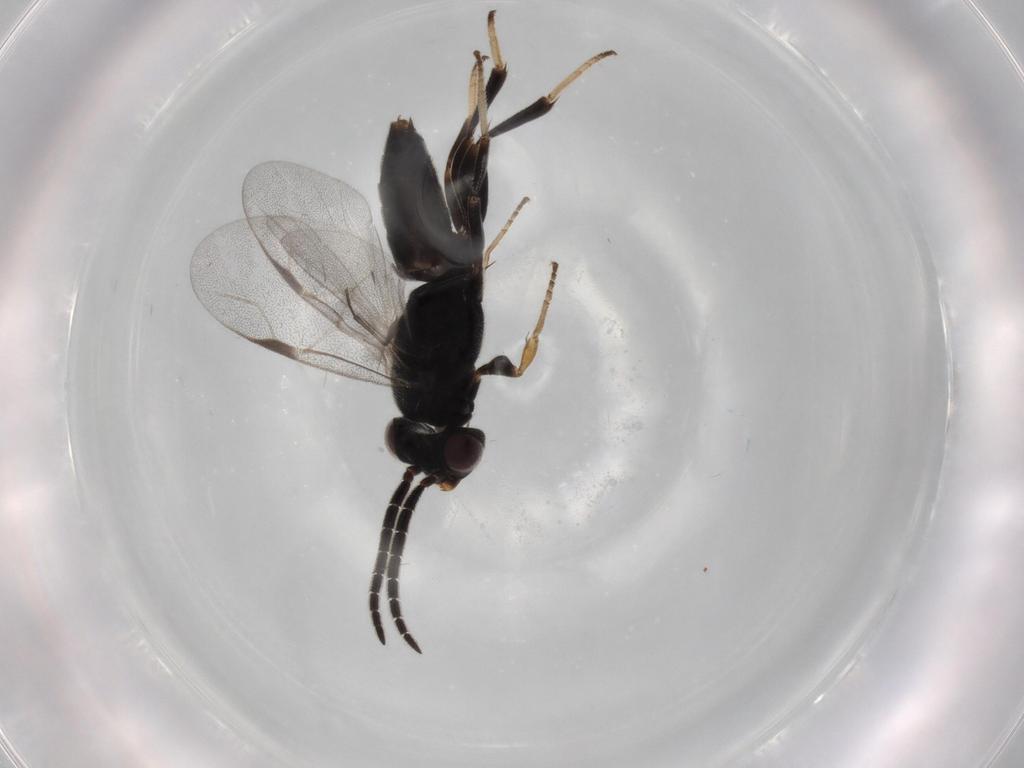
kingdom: Animalia
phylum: Arthropoda
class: Insecta
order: Hymenoptera
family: Dryinidae
